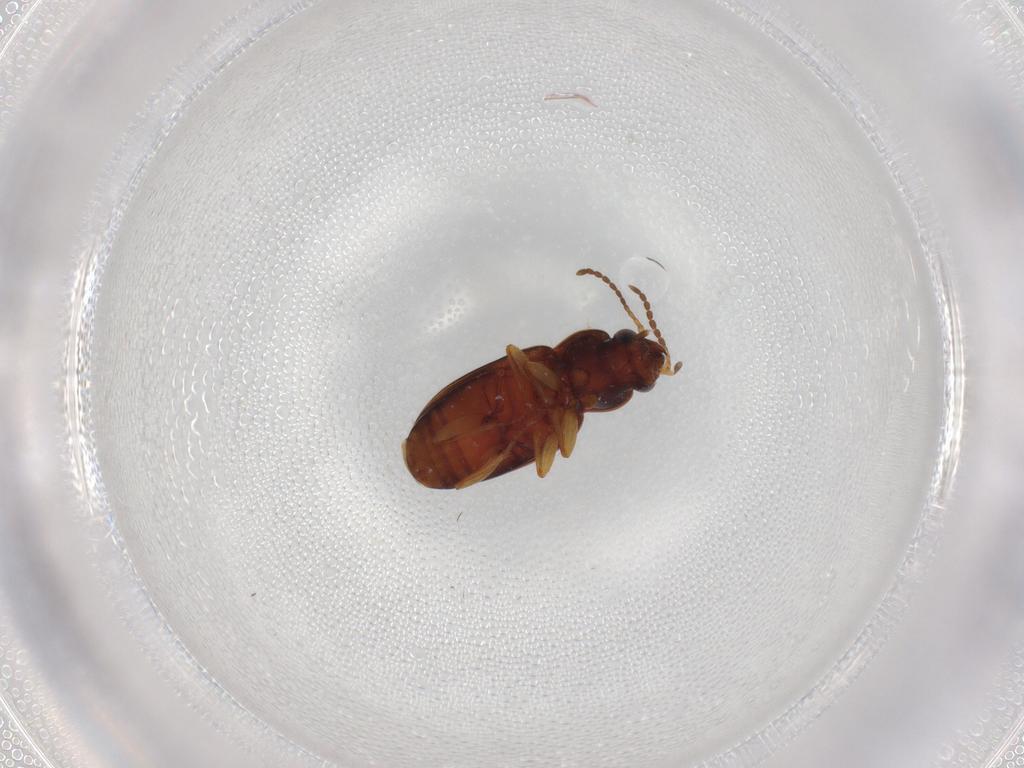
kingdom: Animalia
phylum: Arthropoda
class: Insecta
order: Coleoptera
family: Carabidae
